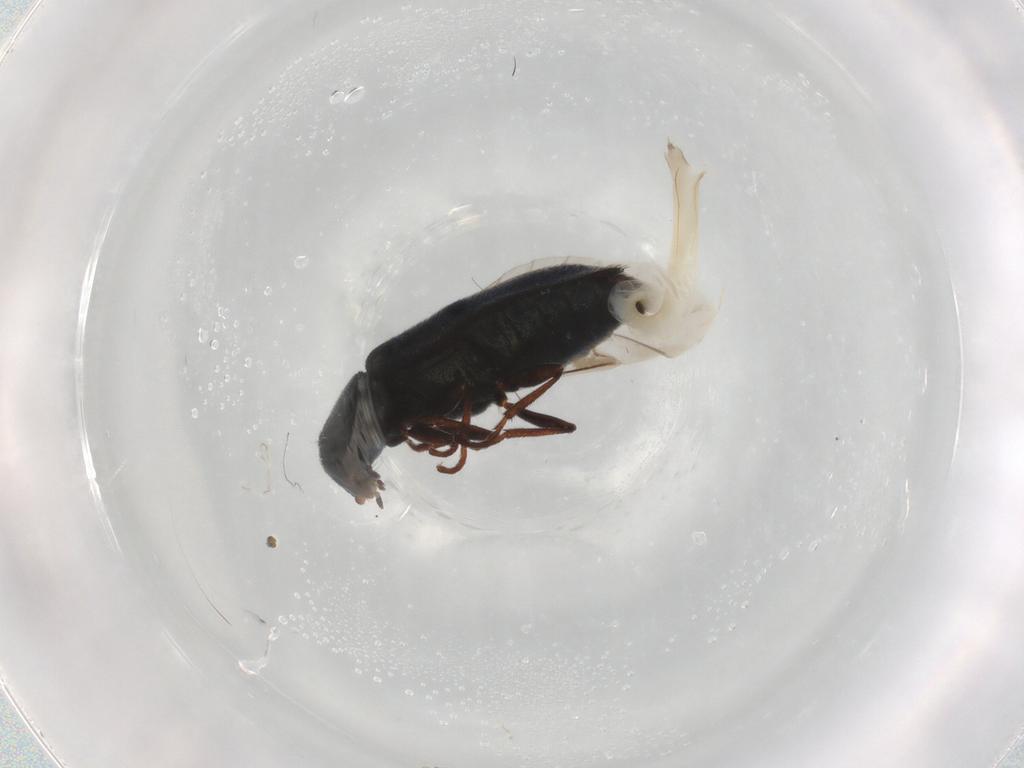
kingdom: Animalia
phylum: Arthropoda
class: Insecta
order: Coleoptera
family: Melyridae
